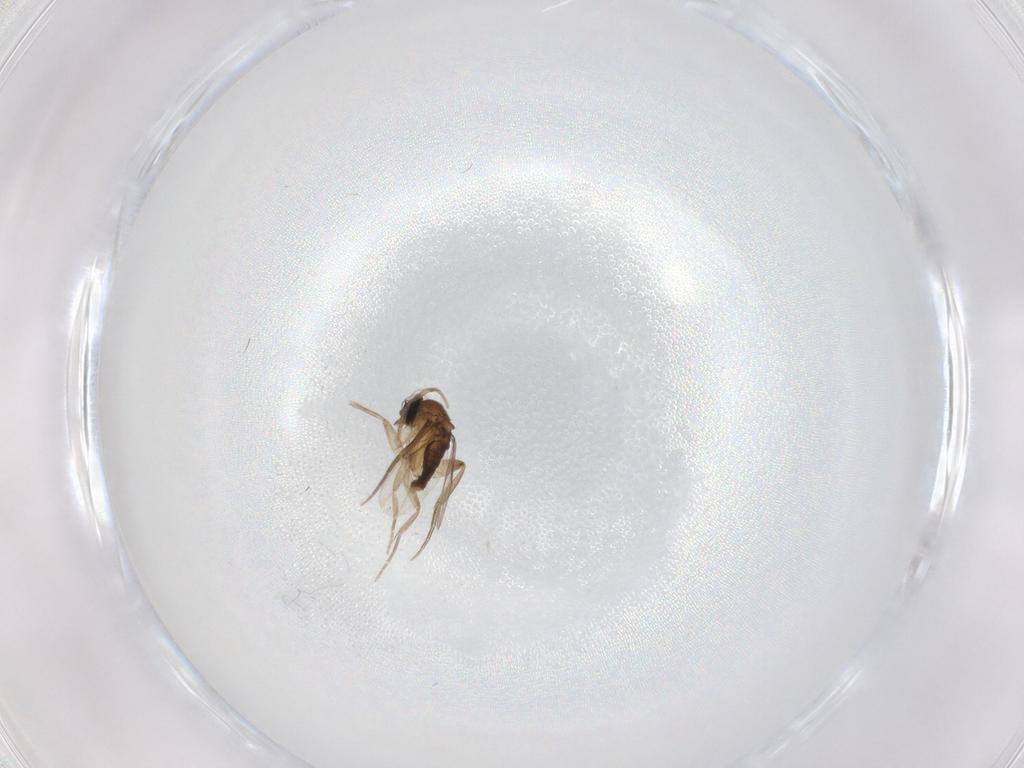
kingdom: Animalia
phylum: Arthropoda
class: Insecta
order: Diptera
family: Phoridae
